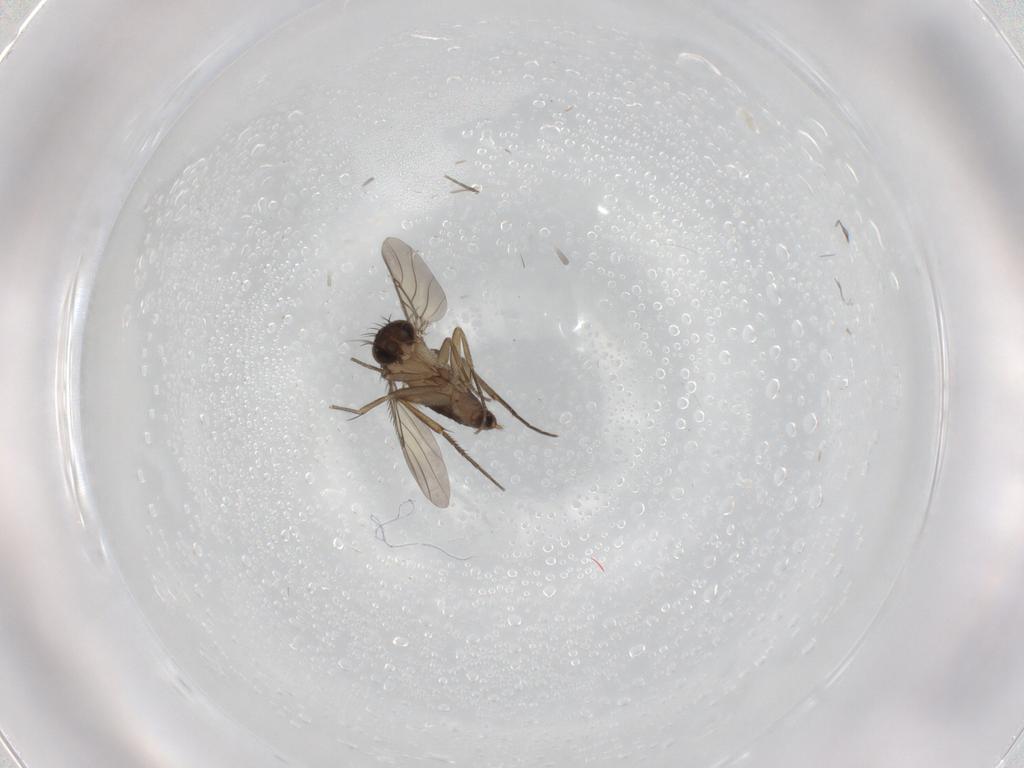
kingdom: Animalia
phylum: Arthropoda
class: Insecta
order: Diptera
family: Phoridae
